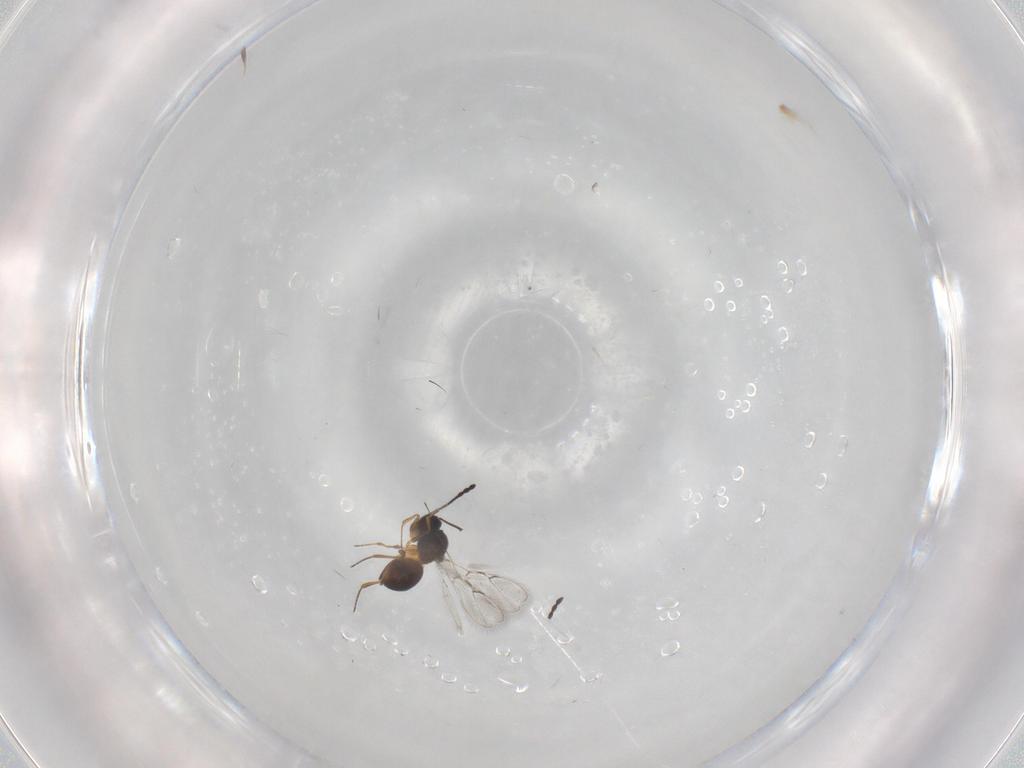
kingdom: Animalia
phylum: Arthropoda
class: Insecta
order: Hymenoptera
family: Figitidae
